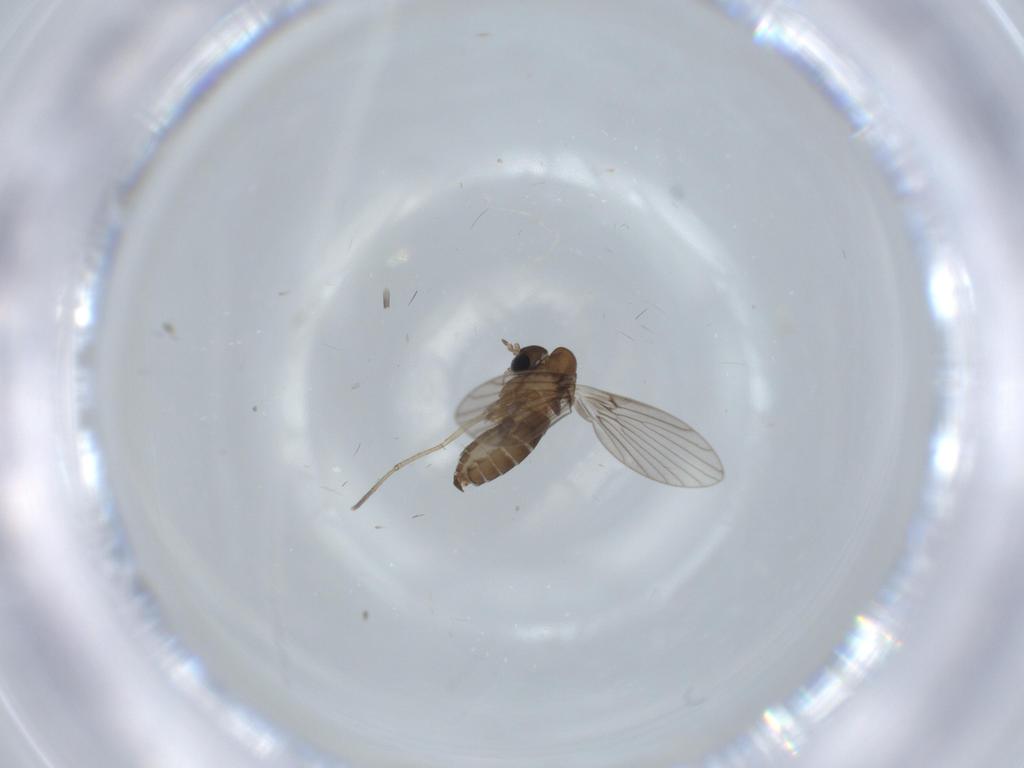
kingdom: Animalia
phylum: Arthropoda
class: Insecta
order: Diptera
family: Psychodidae
